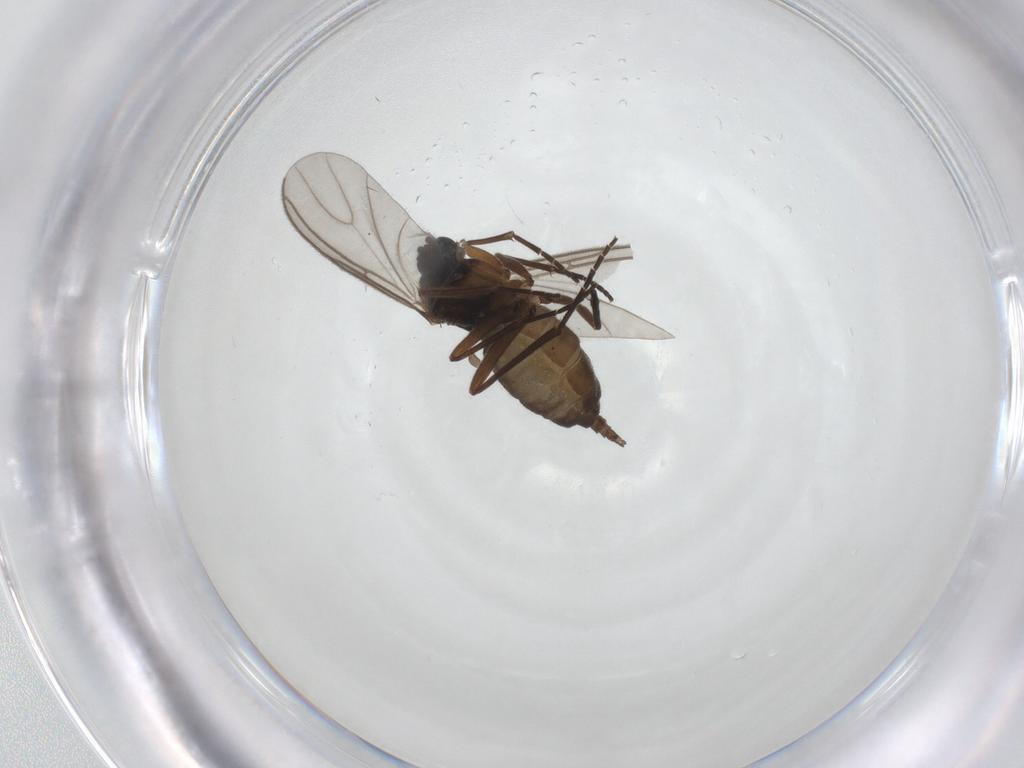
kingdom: Animalia
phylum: Arthropoda
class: Insecta
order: Diptera
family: Sciaridae
